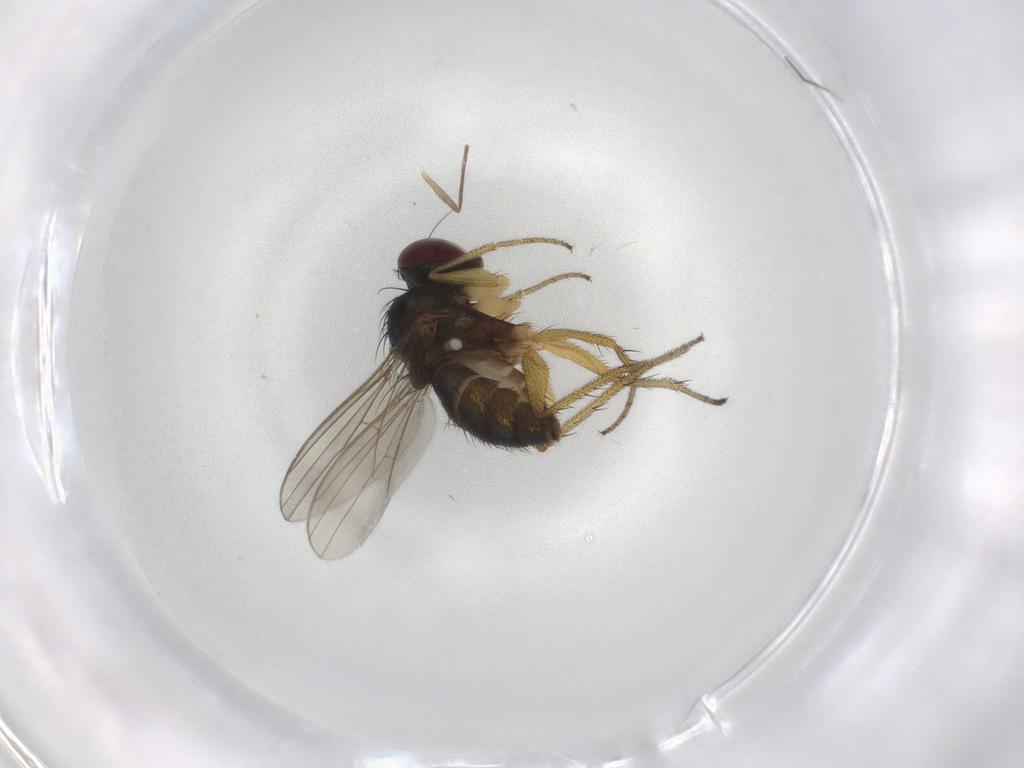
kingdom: Animalia
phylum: Arthropoda
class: Insecta
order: Diptera
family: Chironomidae
